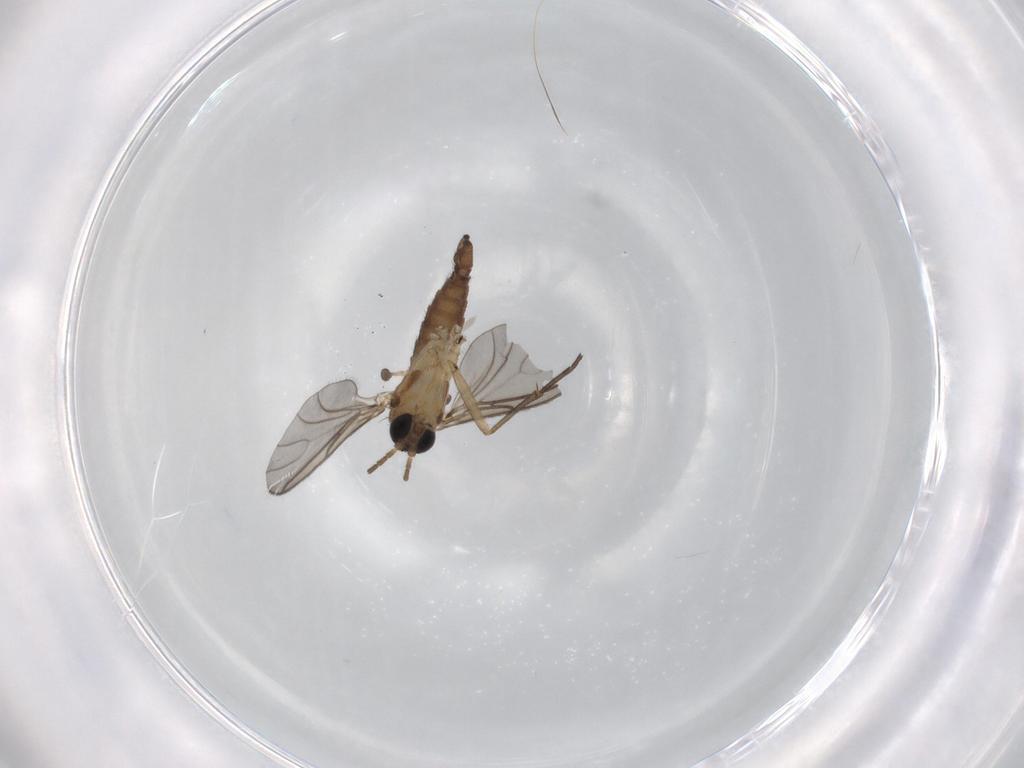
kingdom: Animalia
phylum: Arthropoda
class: Insecta
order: Diptera
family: Sciaridae
